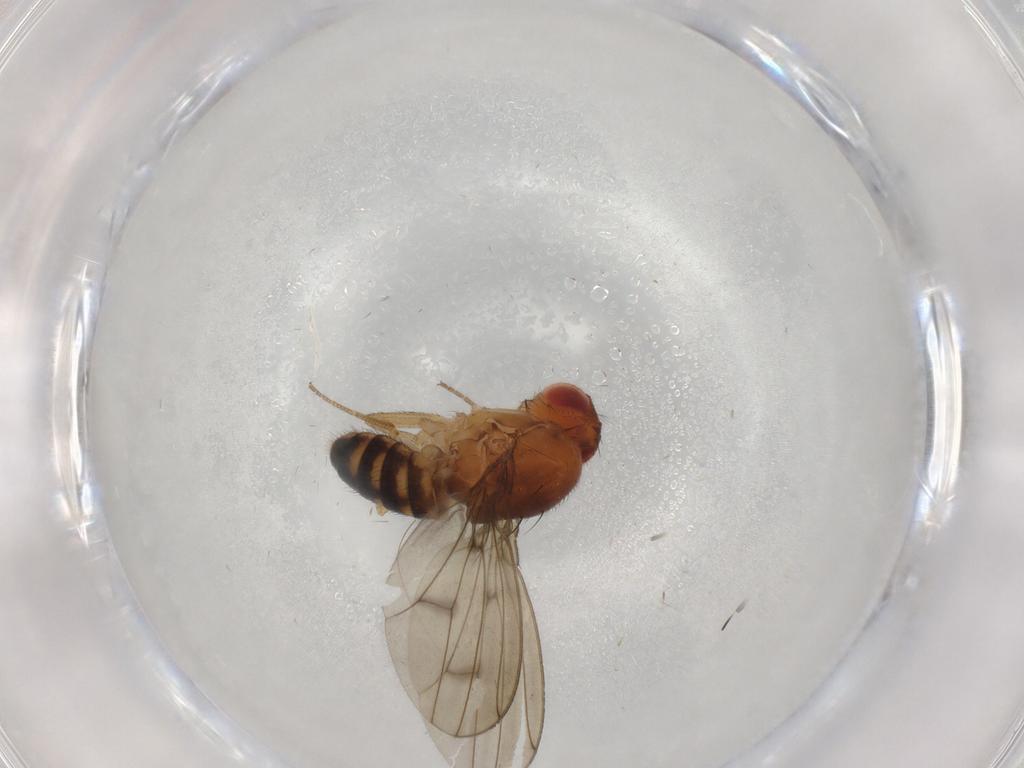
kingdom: Animalia
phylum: Arthropoda
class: Insecta
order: Diptera
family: Drosophilidae
